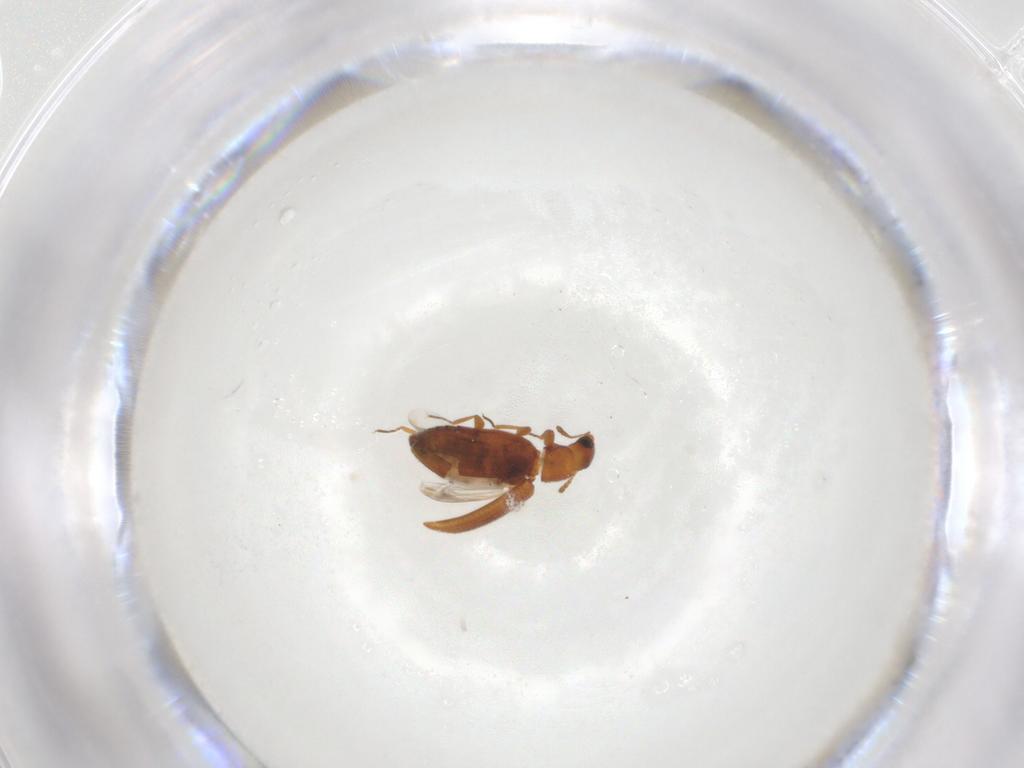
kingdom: Animalia
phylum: Arthropoda
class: Insecta
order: Coleoptera
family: Latridiidae
